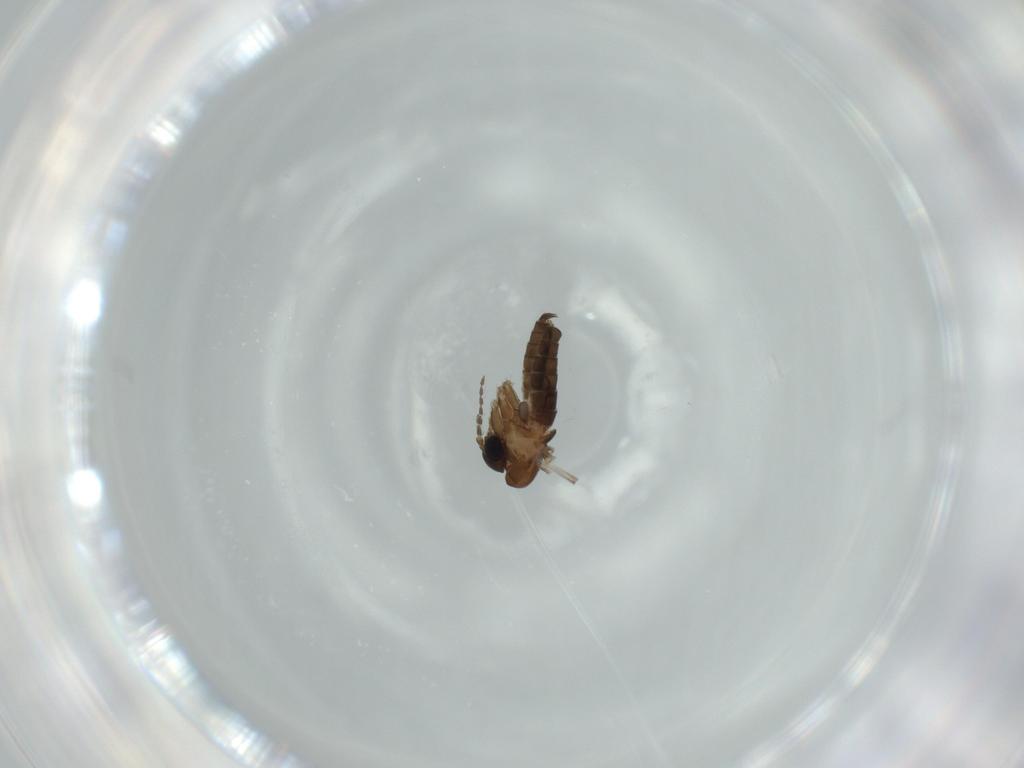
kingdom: Animalia
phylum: Arthropoda
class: Insecta
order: Diptera
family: Psychodidae
